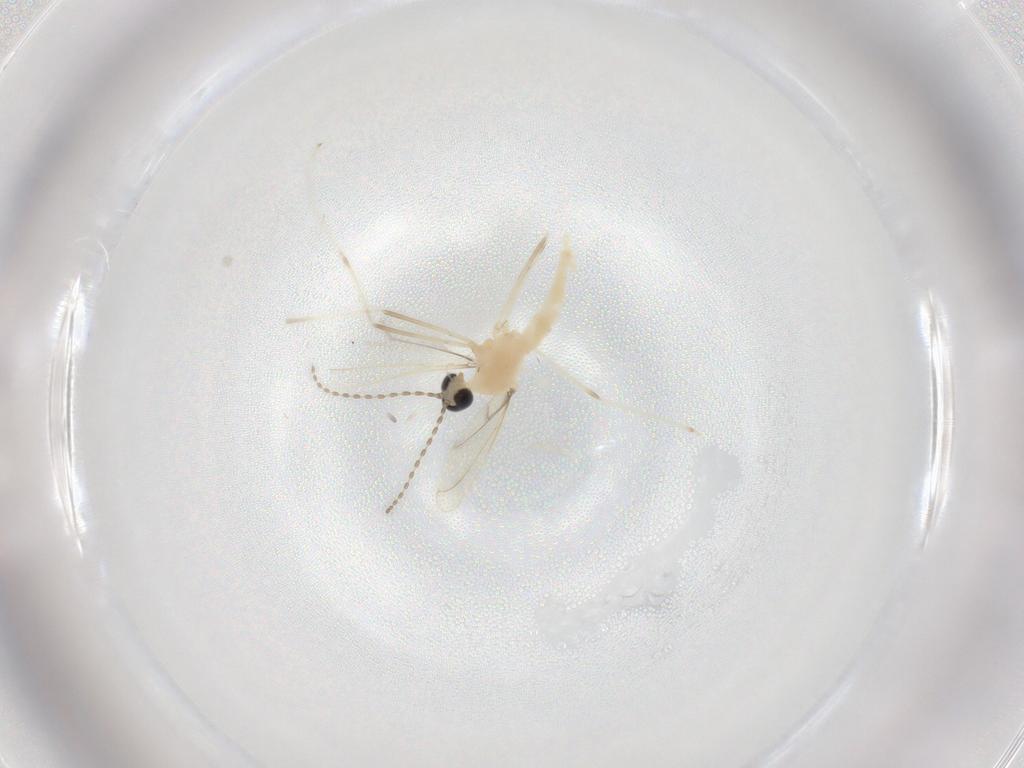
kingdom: Animalia
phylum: Arthropoda
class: Insecta
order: Diptera
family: Cecidomyiidae
